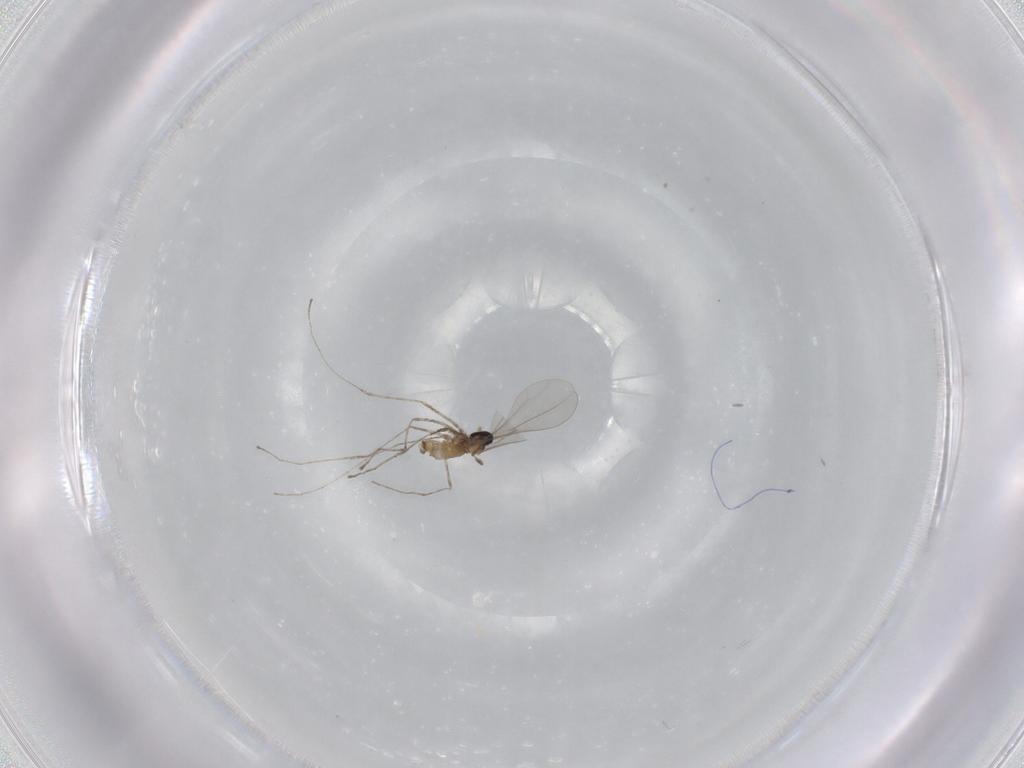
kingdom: Animalia
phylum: Arthropoda
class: Insecta
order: Diptera
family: Cecidomyiidae
